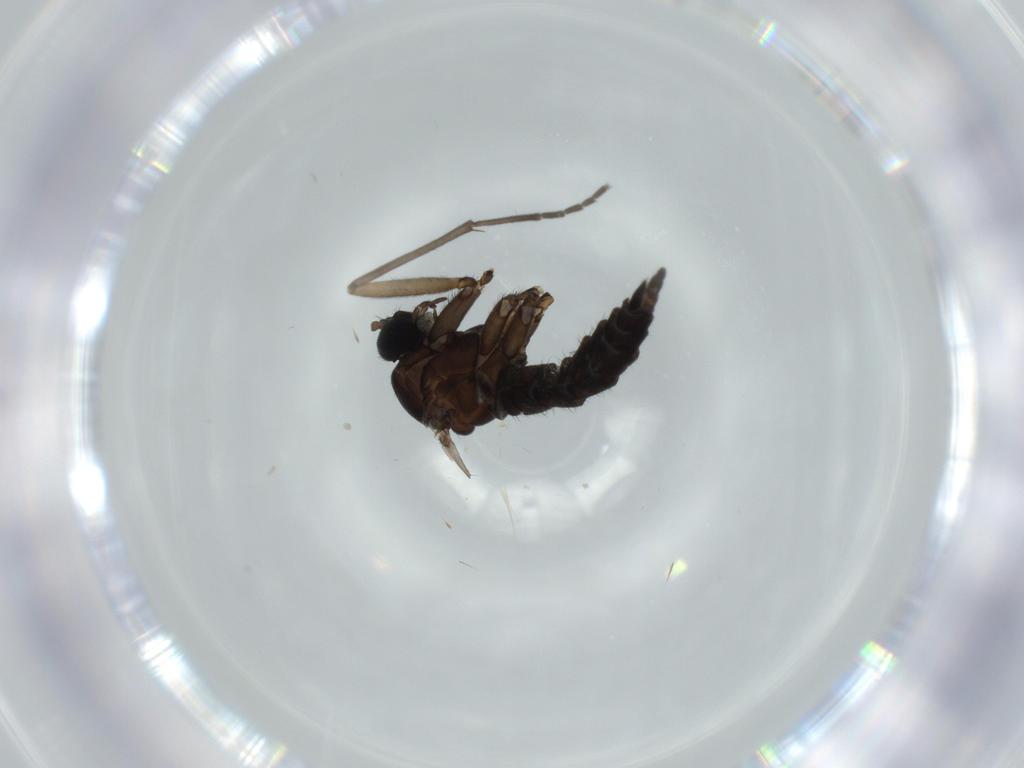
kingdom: Animalia
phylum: Arthropoda
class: Insecta
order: Diptera
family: Sciaridae
